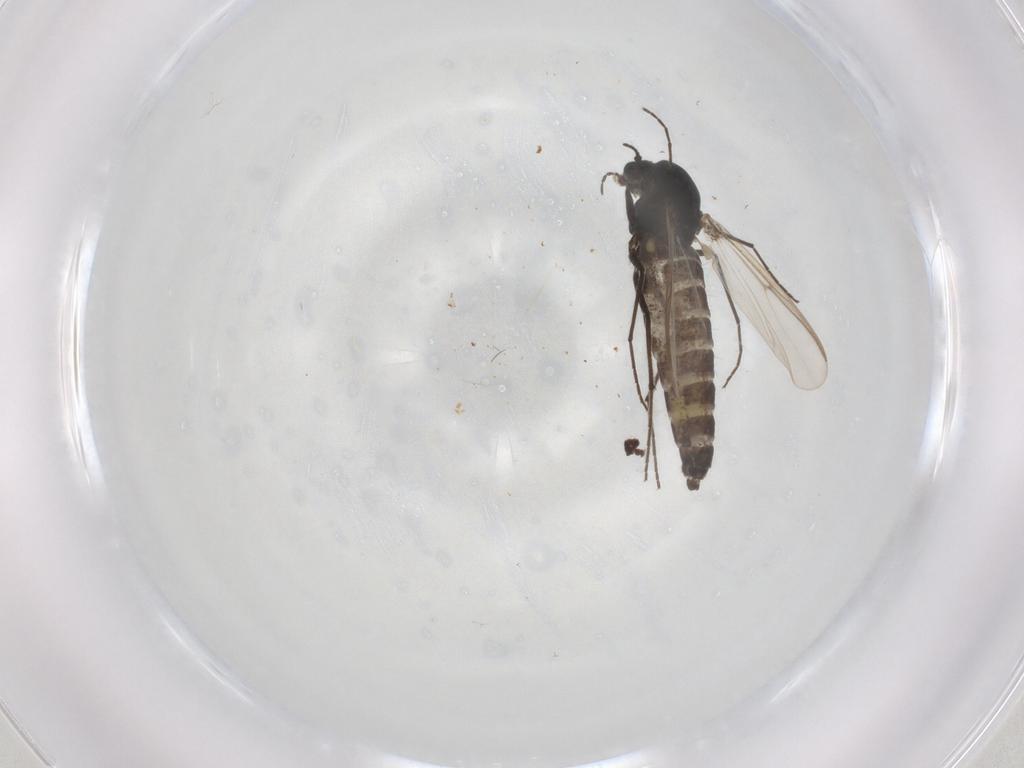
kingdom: Animalia
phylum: Arthropoda
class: Insecta
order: Diptera
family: Chironomidae
